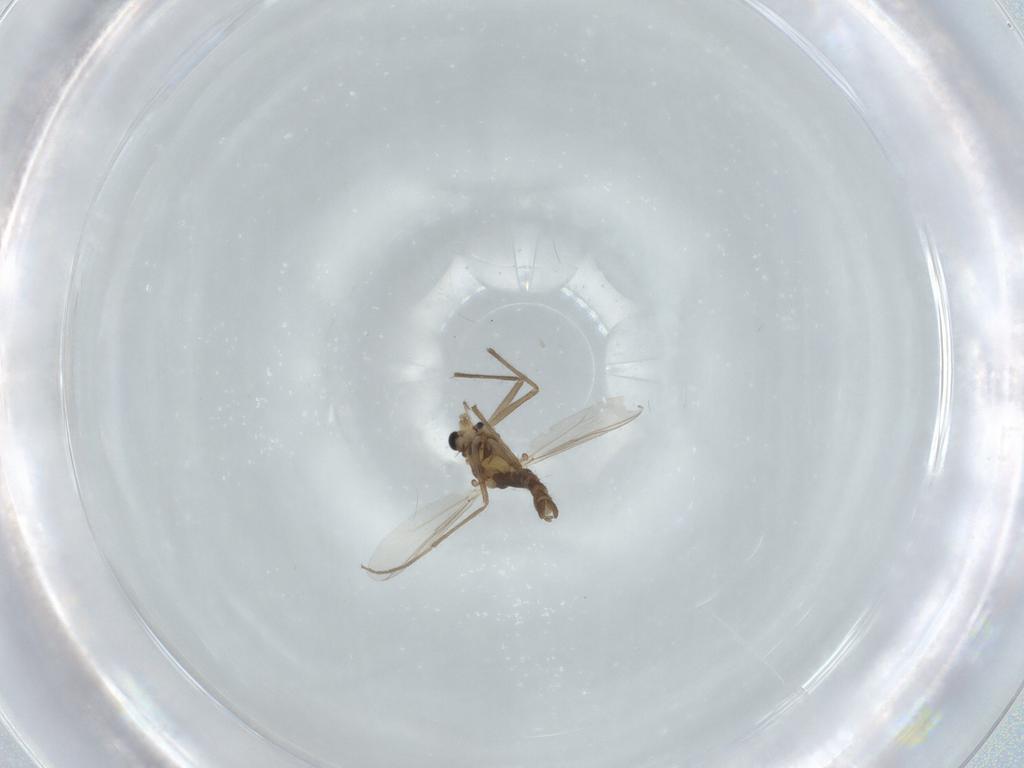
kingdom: Animalia
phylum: Arthropoda
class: Insecta
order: Diptera
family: Chironomidae
